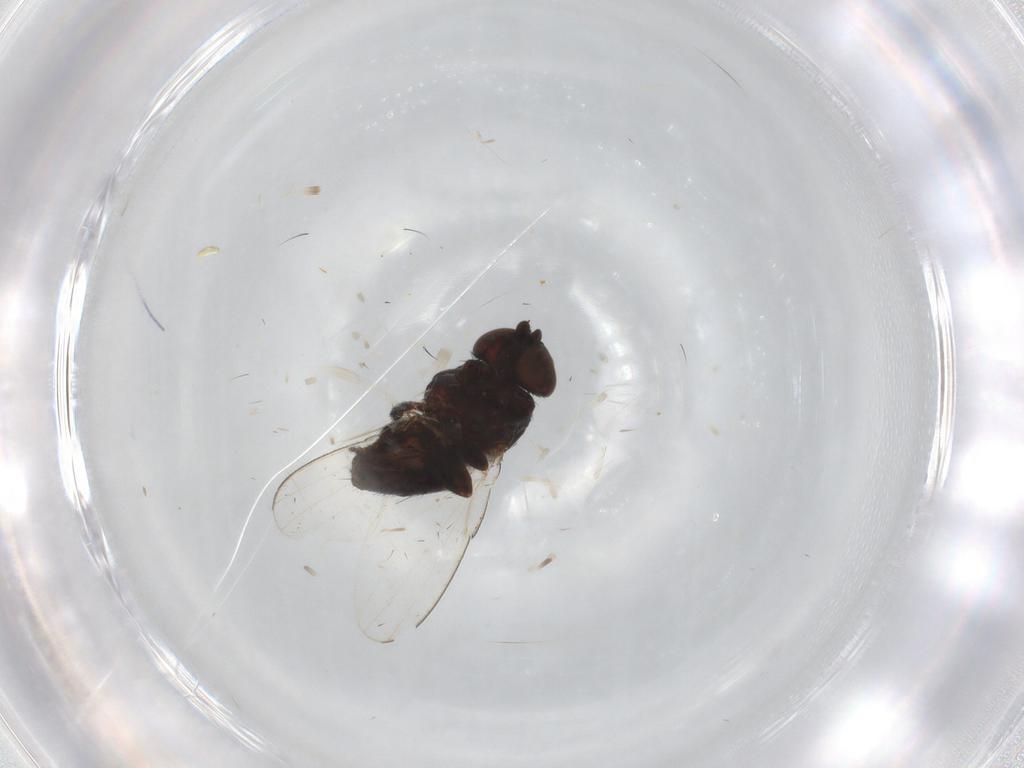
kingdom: Animalia
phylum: Arthropoda
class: Insecta
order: Diptera
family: Milichiidae
